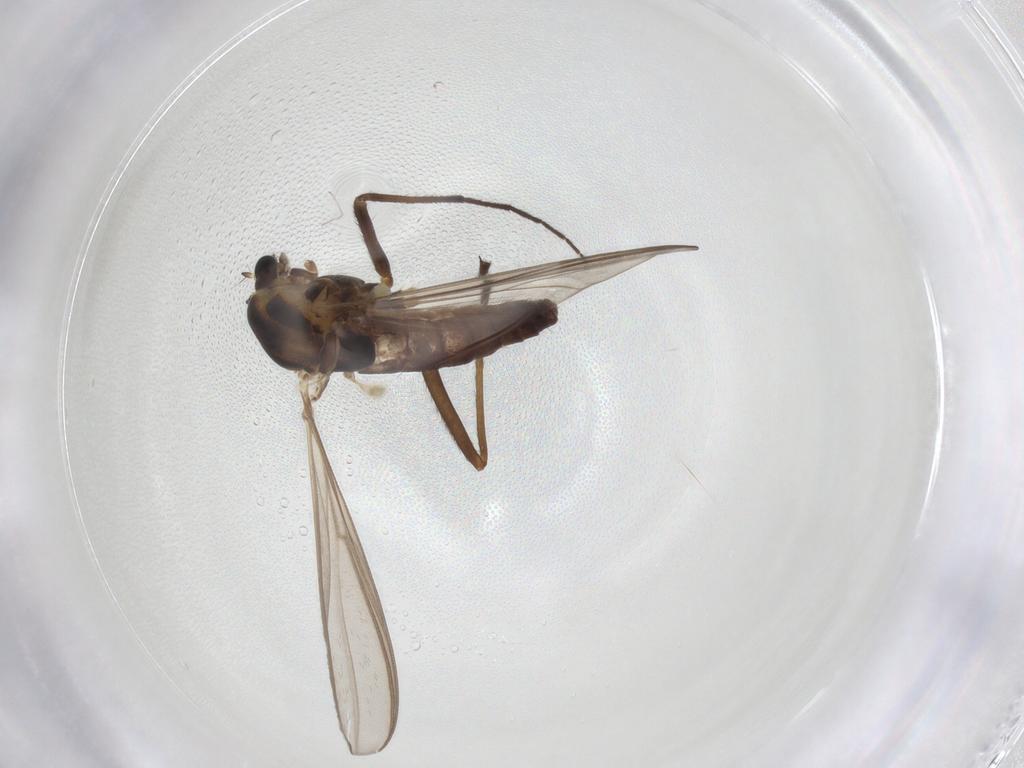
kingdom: Animalia
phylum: Arthropoda
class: Insecta
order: Diptera
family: Chironomidae
